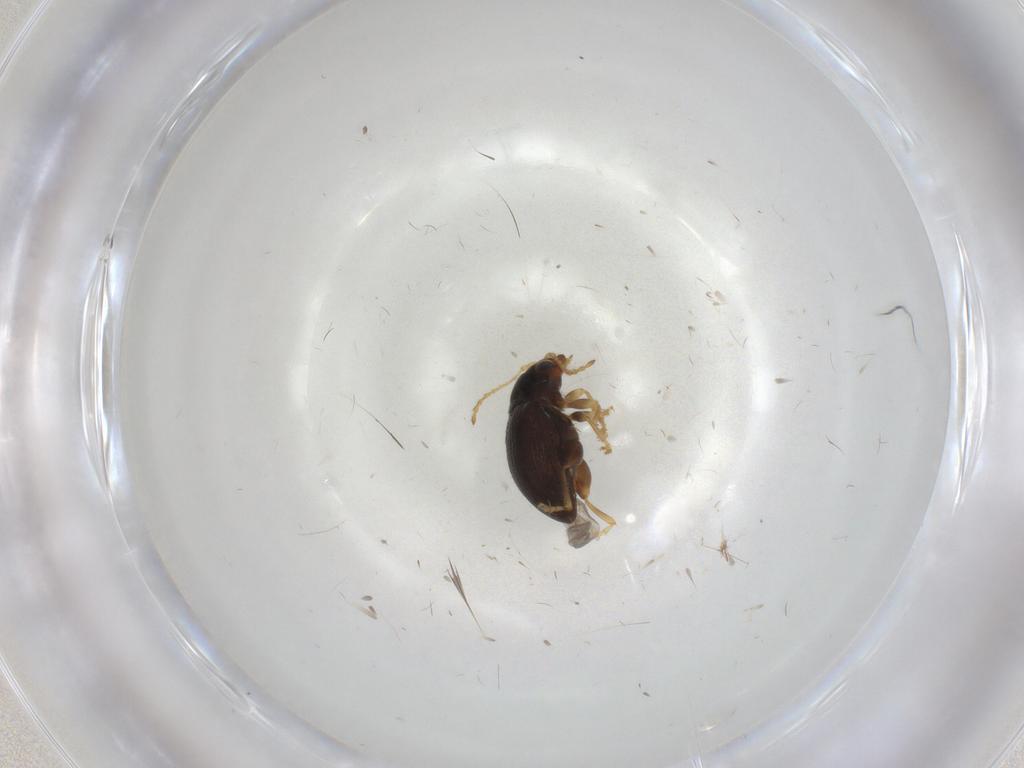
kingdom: Animalia
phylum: Arthropoda
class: Insecta
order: Coleoptera
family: Chrysomelidae
